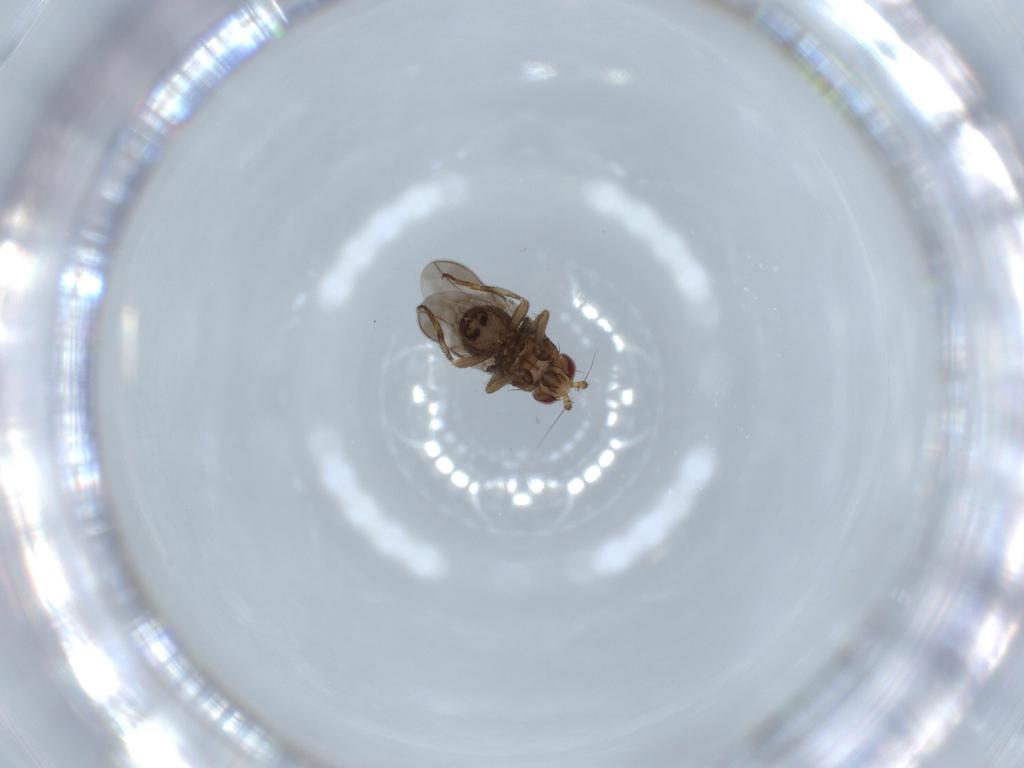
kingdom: Animalia
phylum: Arthropoda
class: Insecta
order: Diptera
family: Sphaeroceridae
